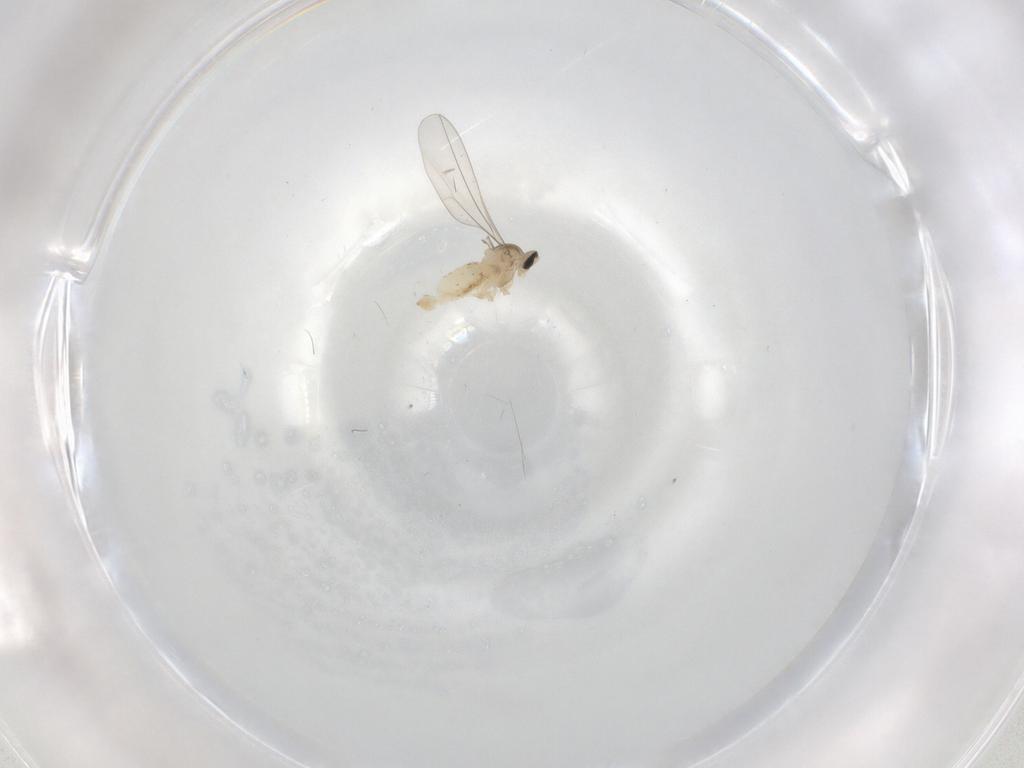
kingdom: Animalia
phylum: Arthropoda
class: Insecta
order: Diptera
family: Cecidomyiidae
